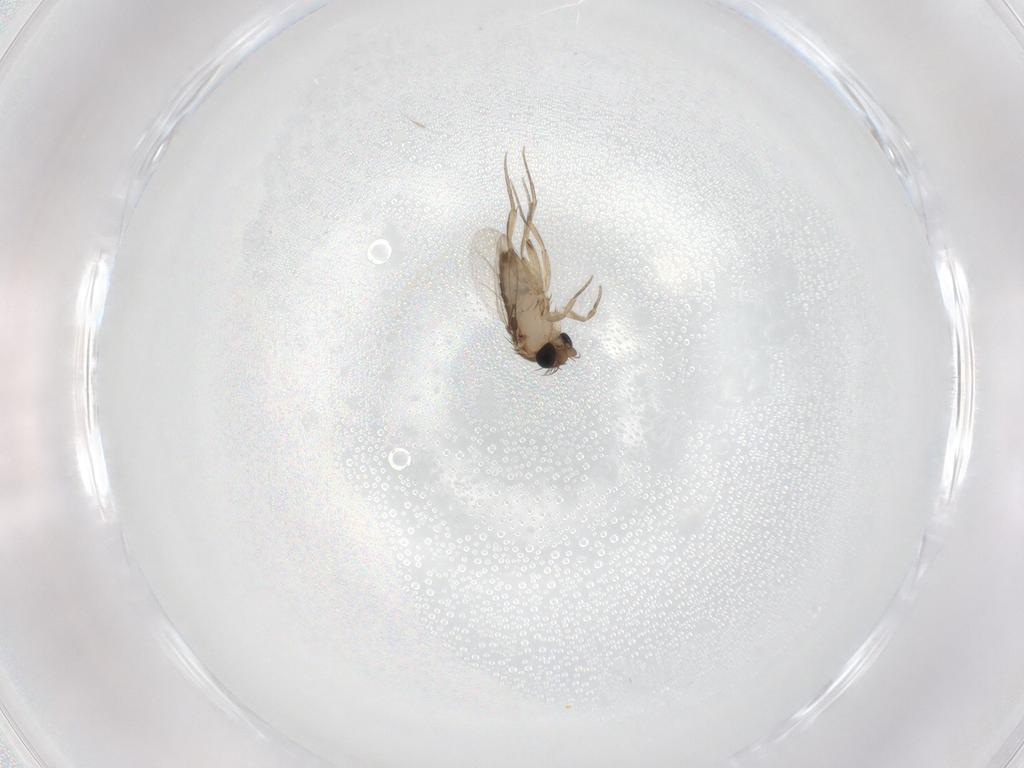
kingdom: Animalia
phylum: Arthropoda
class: Insecta
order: Diptera
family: Phoridae
